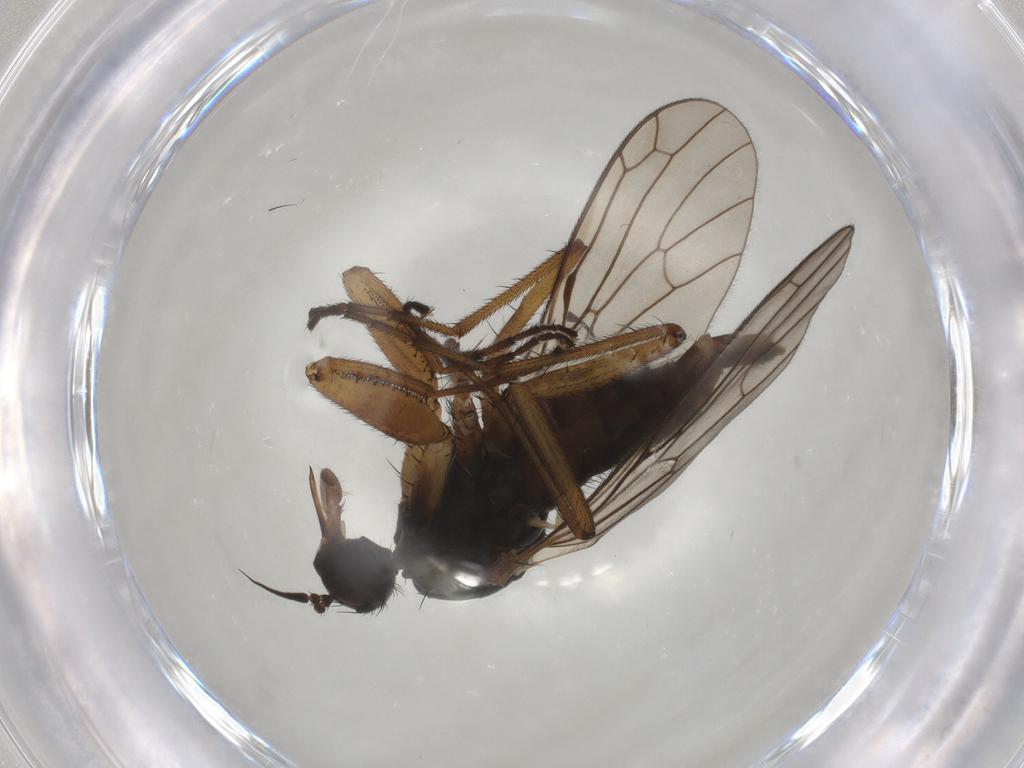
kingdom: Animalia
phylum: Arthropoda
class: Insecta
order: Diptera
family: Empididae
